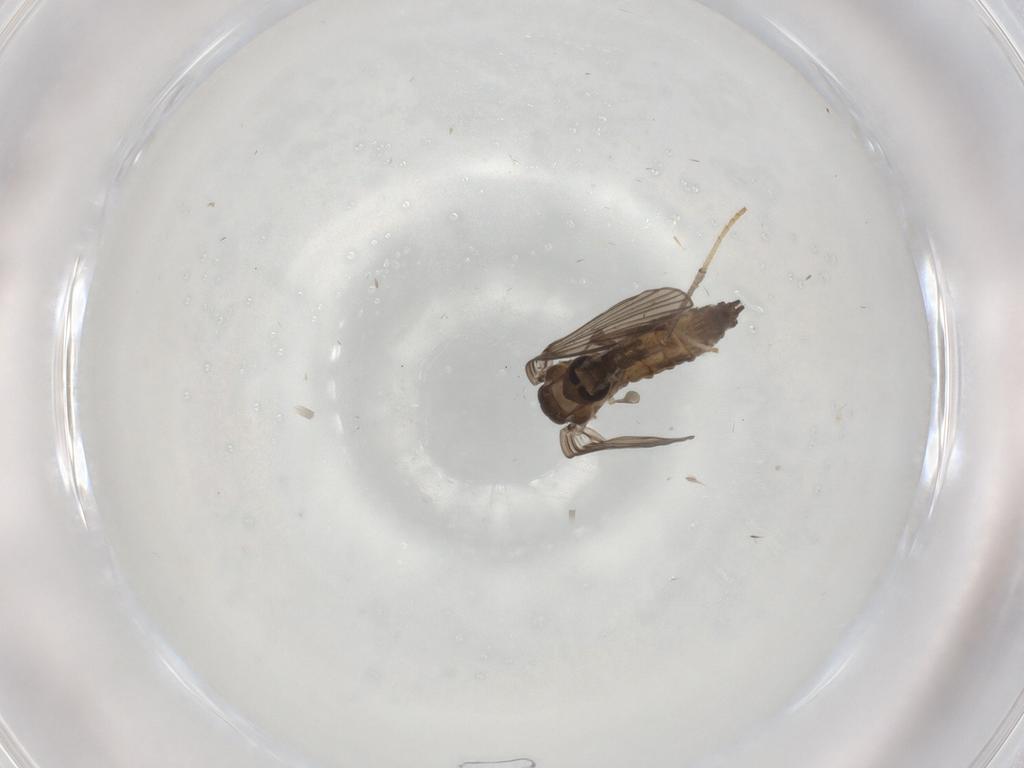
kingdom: Animalia
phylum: Arthropoda
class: Insecta
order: Diptera
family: Psychodidae
